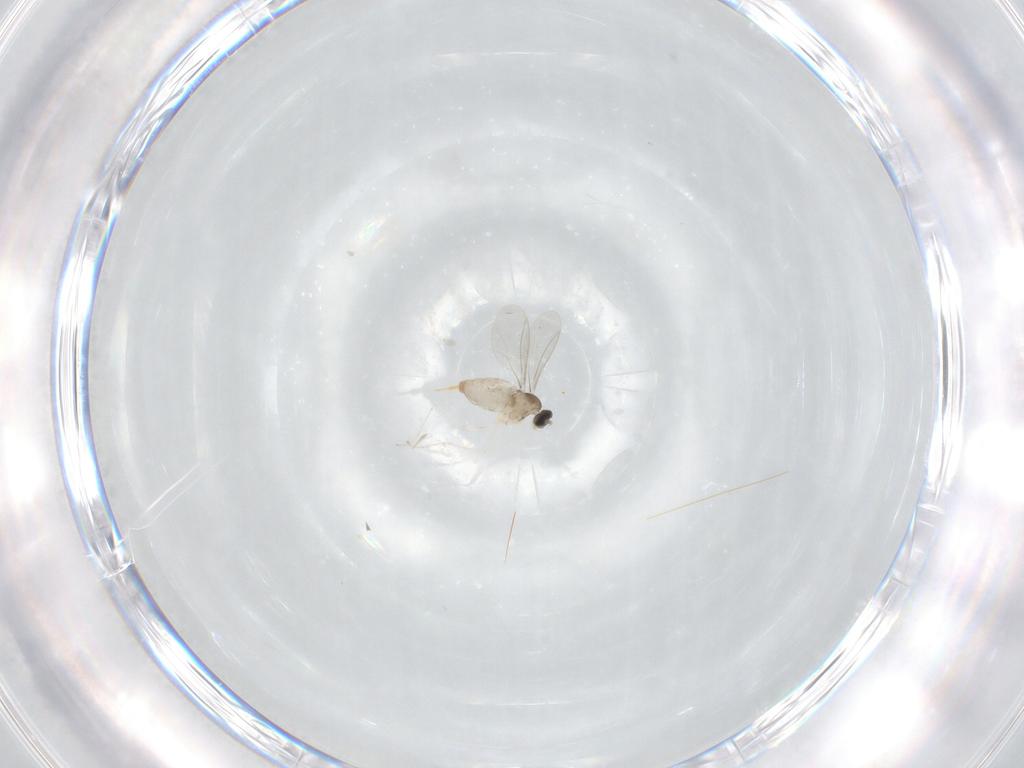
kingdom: Animalia
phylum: Arthropoda
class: Insecta
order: Diptera
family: Cecidomyiidae
